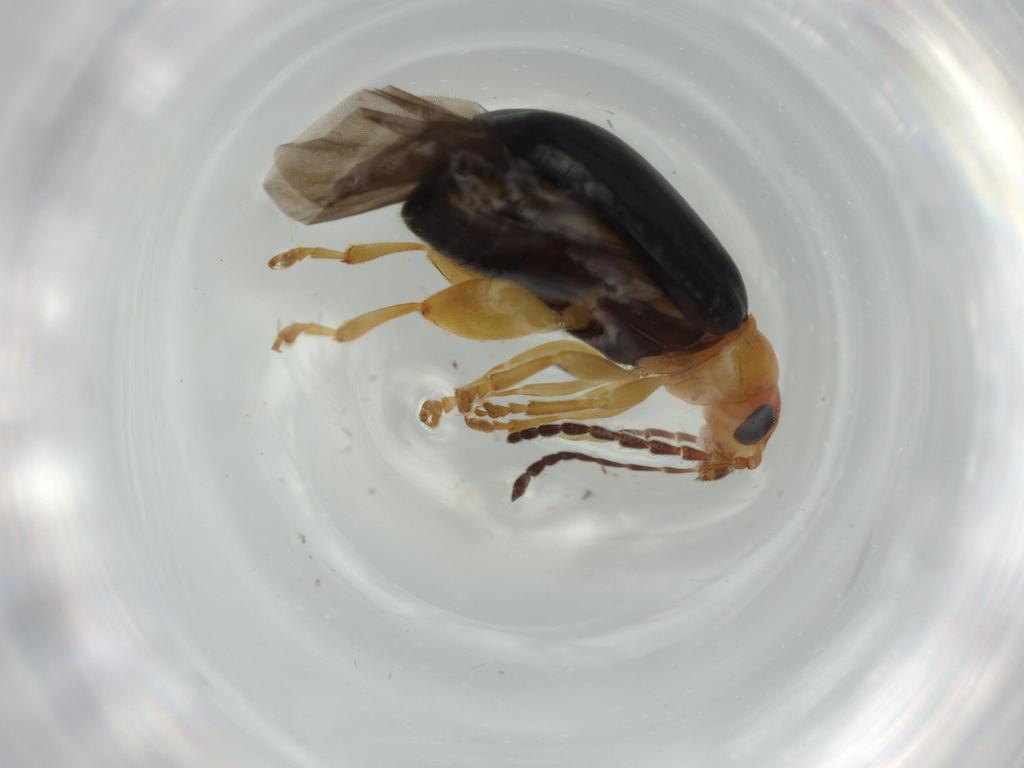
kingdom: Animalia
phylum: Arthropoda
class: Insecta
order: Coleoptera
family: Chrysomelidae
